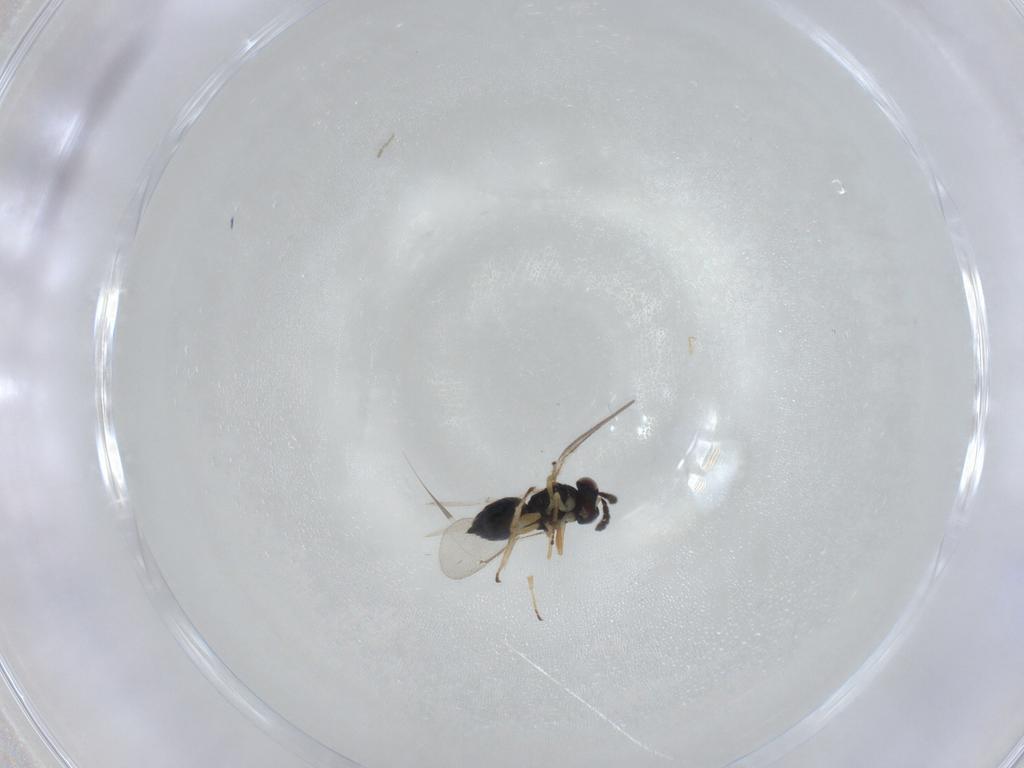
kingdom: Animalia
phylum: Arthropoda
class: Insecta
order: Hymenoptera
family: Eulophidae
